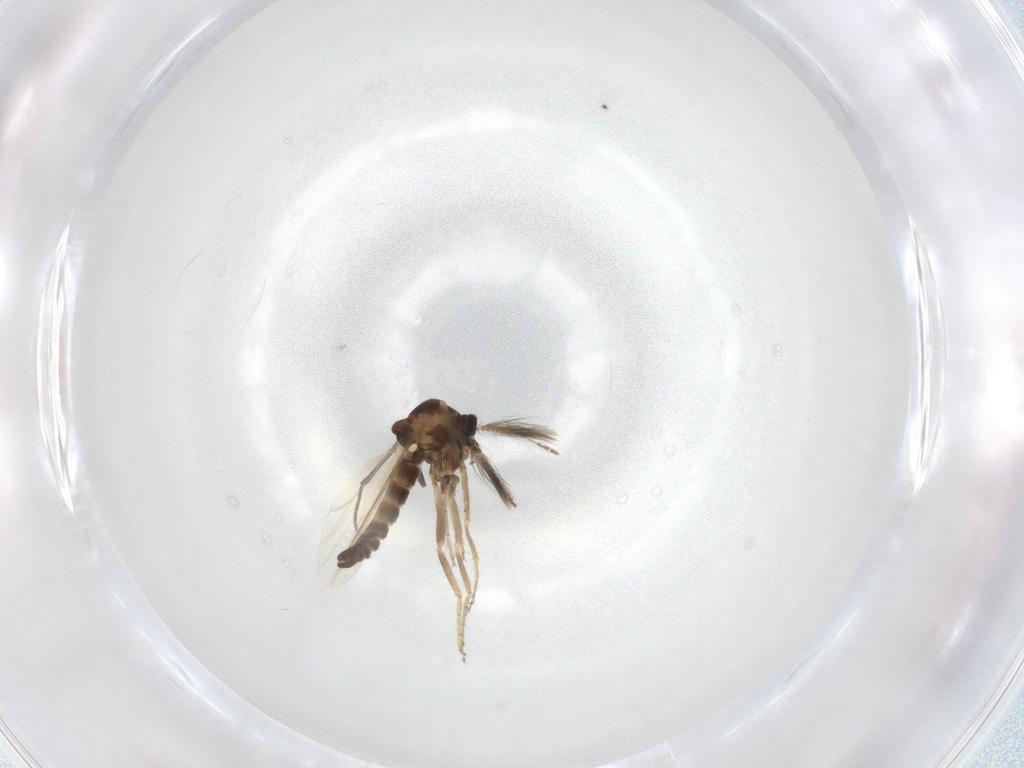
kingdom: Animalia
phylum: Arthropoda
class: Insecta
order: Diptera
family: Ceratopogonidae
